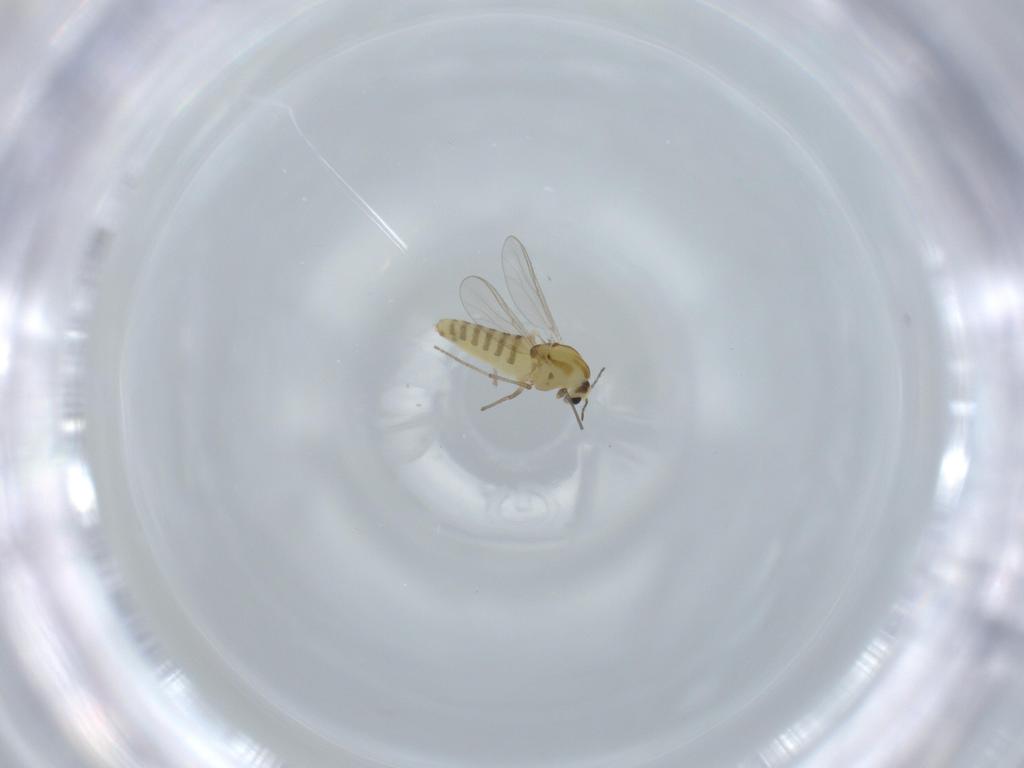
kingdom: Animalia
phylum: Arthropoda
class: Insecta
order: Diptera
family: Chironomidae
